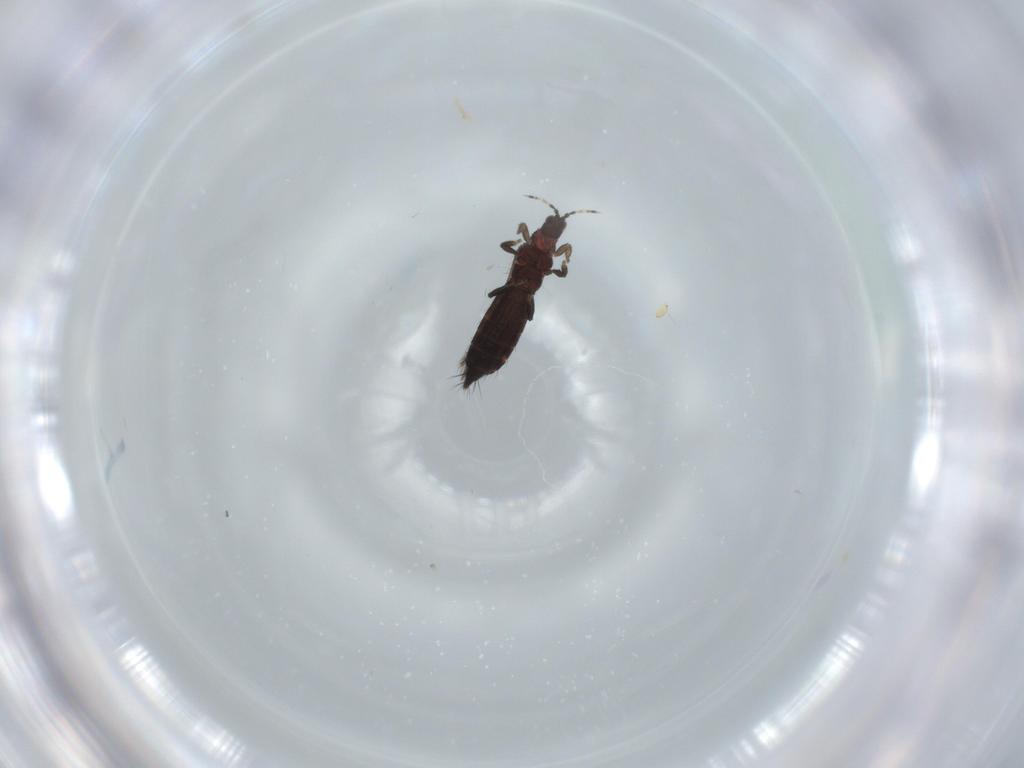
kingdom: Animalia
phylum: Arthropoda
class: Insecta
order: Thysanoptera
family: Thripidae
